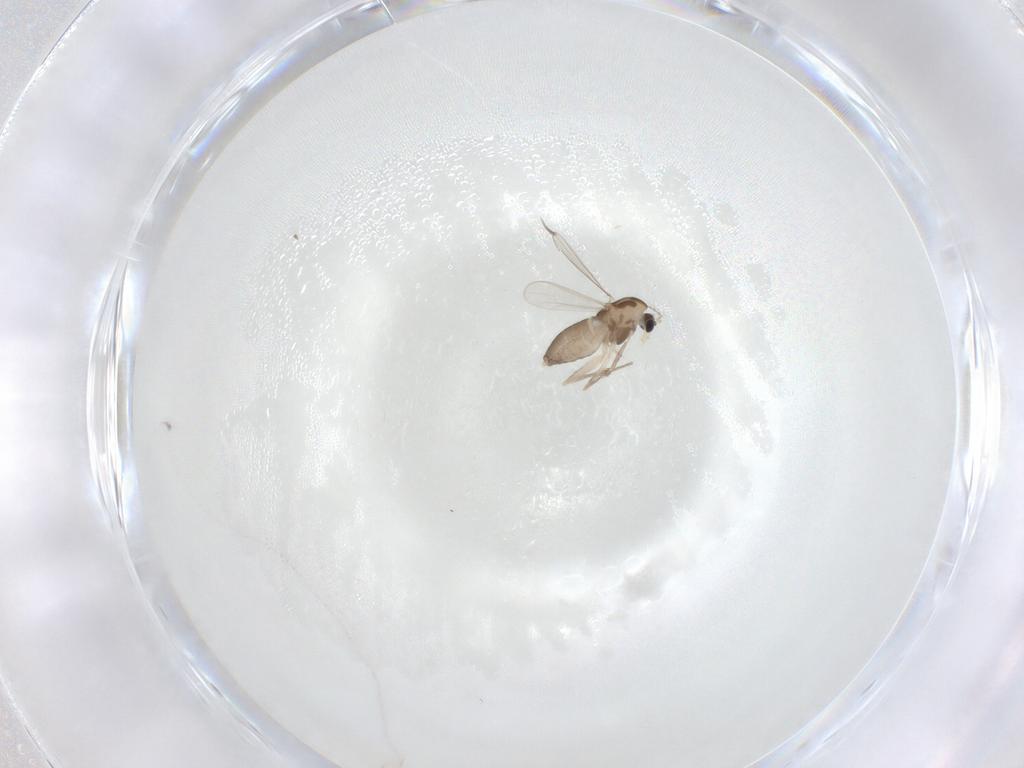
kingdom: Animalia
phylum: Arthropoda
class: Insecta
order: Diptera
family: Chironomidae
